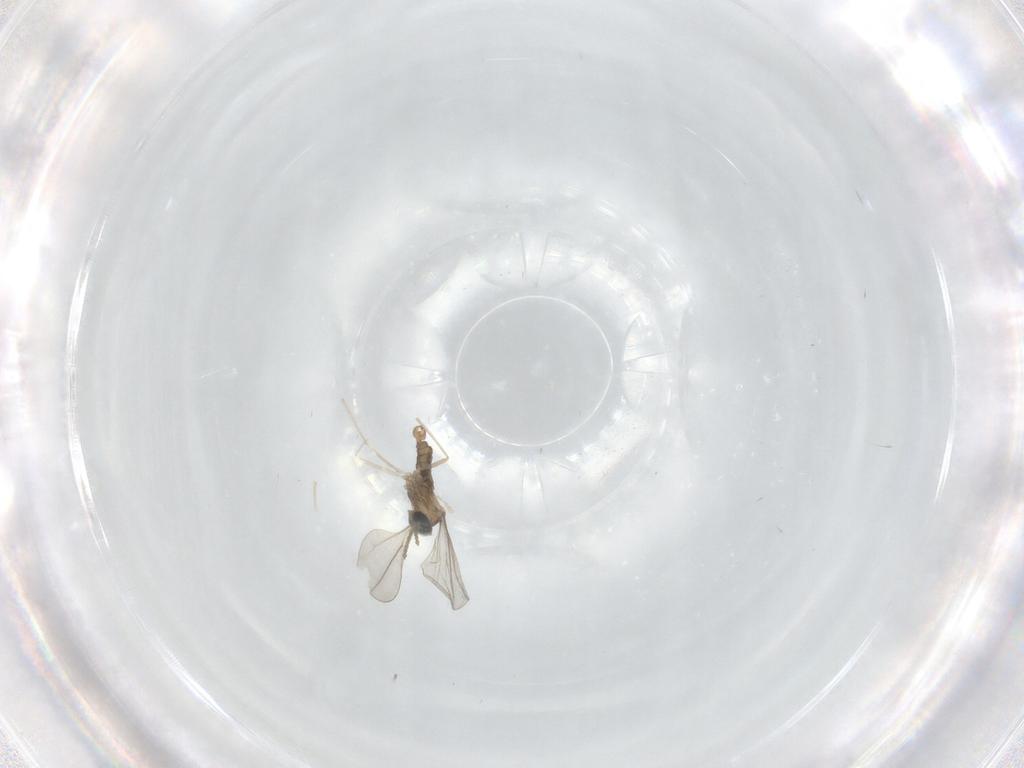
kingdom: Animalia
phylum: Arthropoda
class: Insecta
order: Diptera
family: Cecidomyiidae
